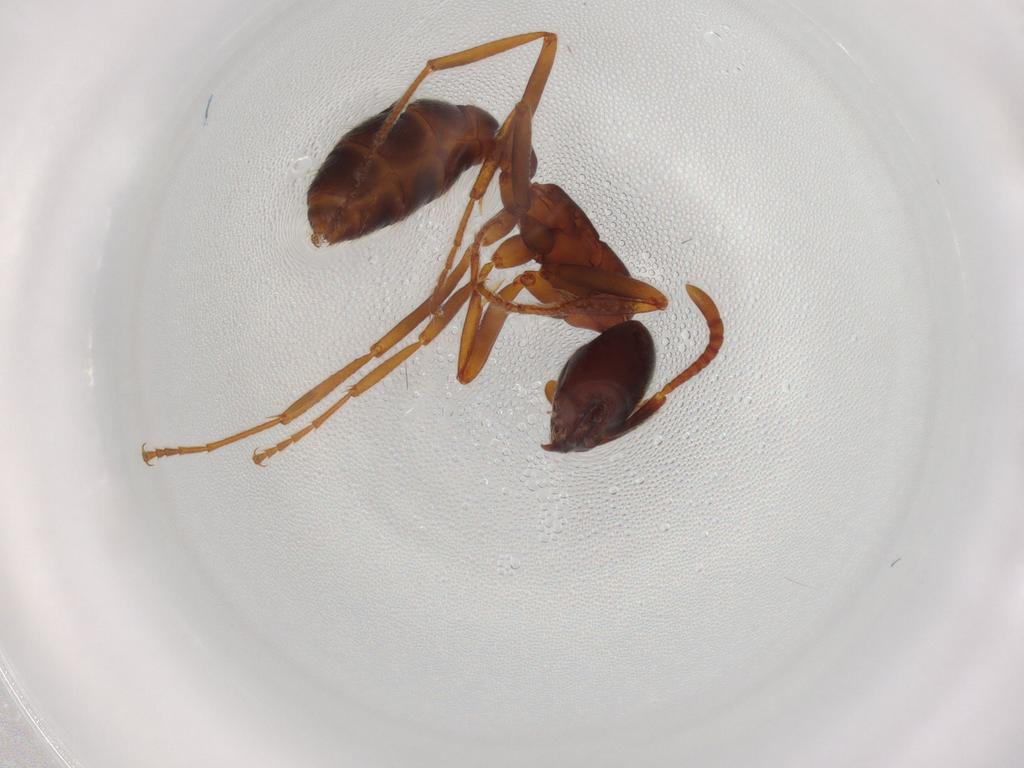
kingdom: Animalia
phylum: Arthropoda
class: Insecta
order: Hymenoptera
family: Formicidae
